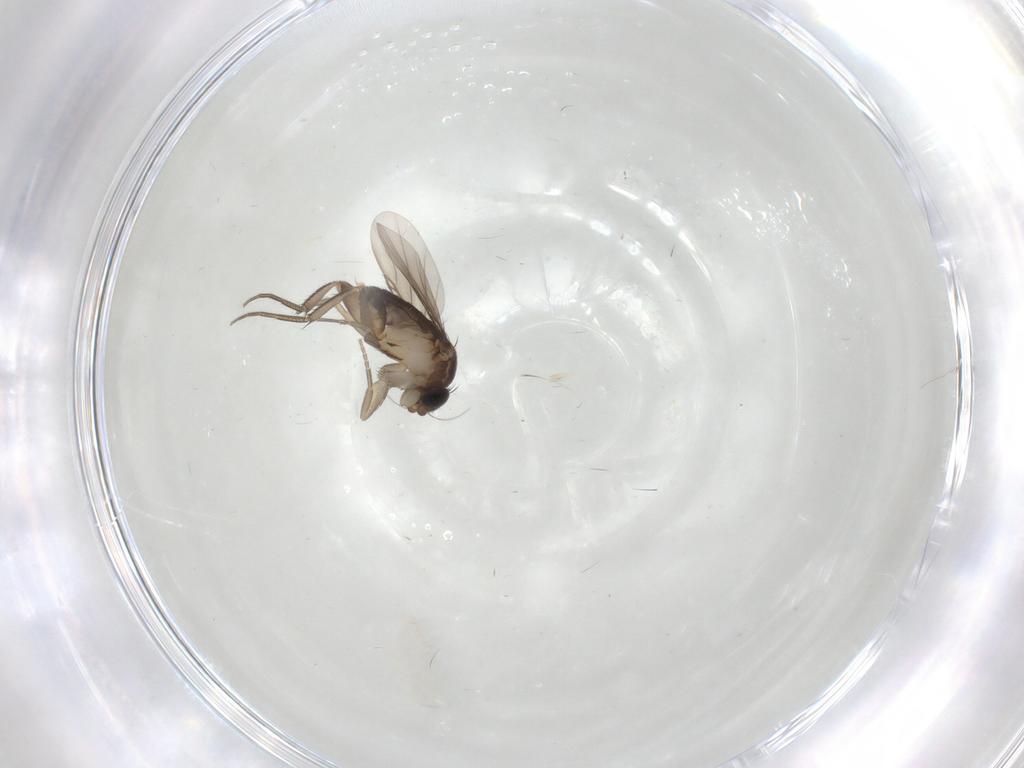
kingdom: Animalia
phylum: Arthropoda
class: Insecta
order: Diptera
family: Phoridae
